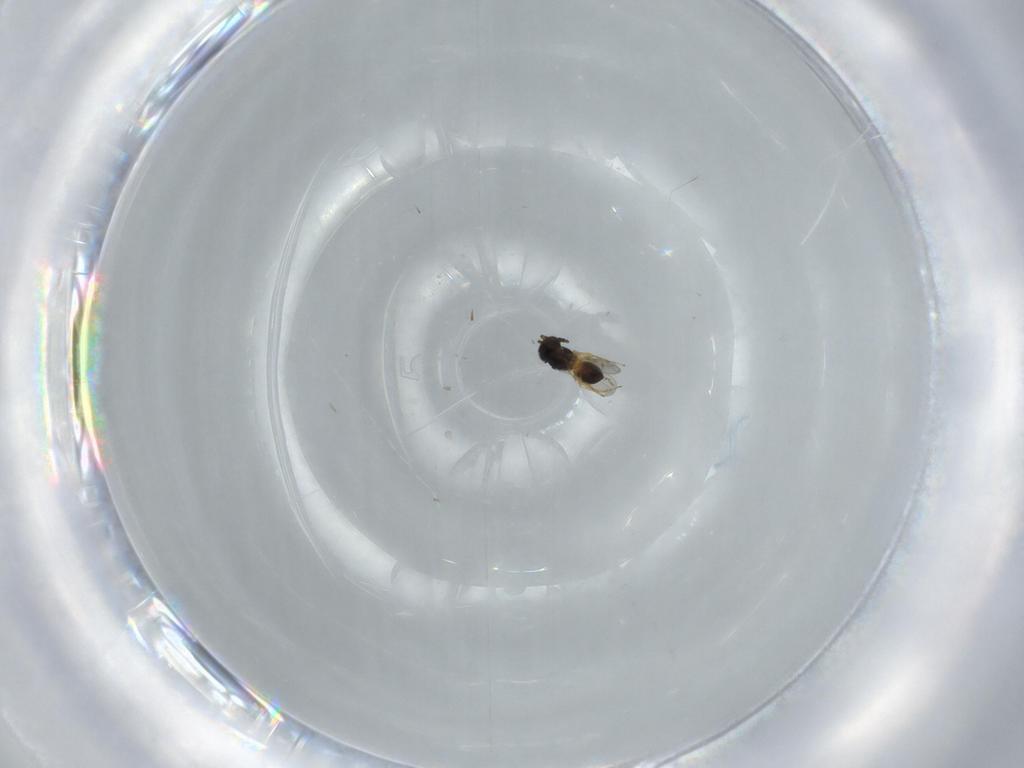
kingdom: Animalia
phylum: Arthropoda
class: Insecta
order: Hymenoptera
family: Scelionidae
